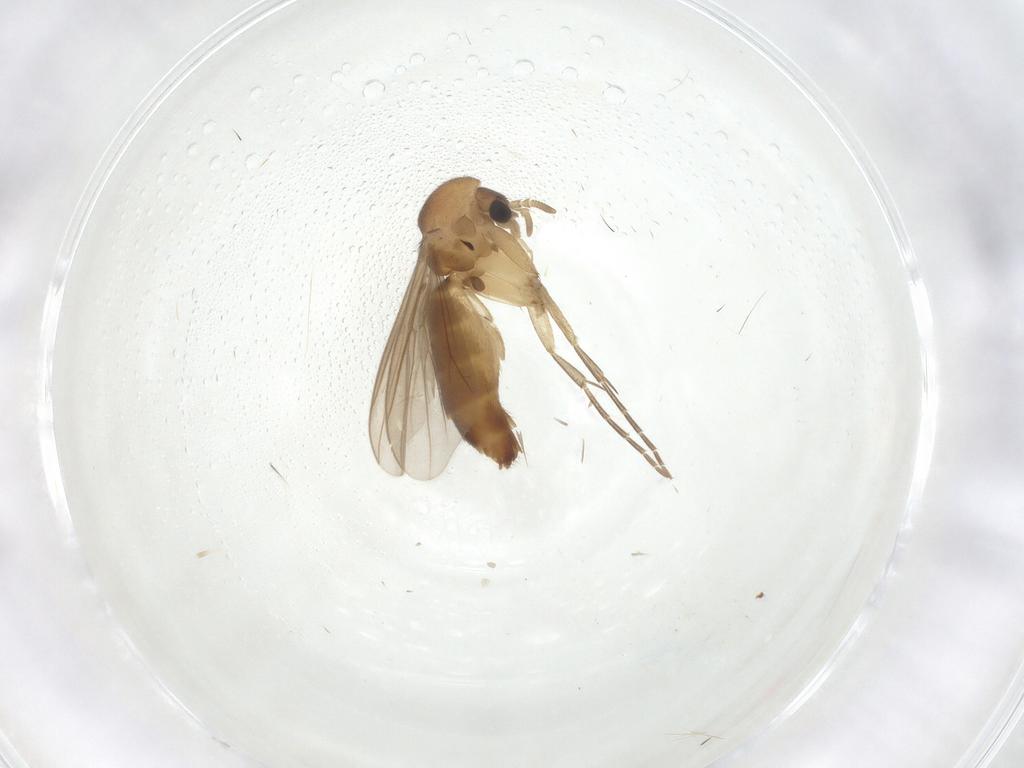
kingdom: Animalia
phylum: Arthropoda
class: Insecta
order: Diptera
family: Mycetophilidae
